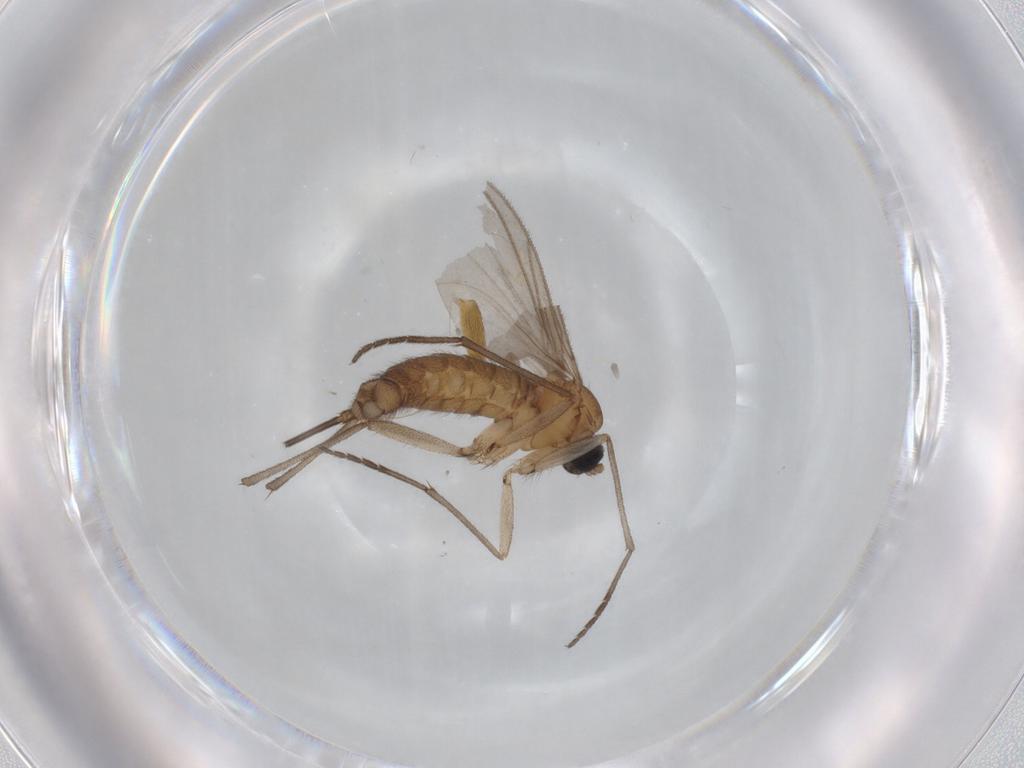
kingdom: Animalia
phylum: Arthropoda
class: Insecta
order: Diptera
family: Sciaridae
